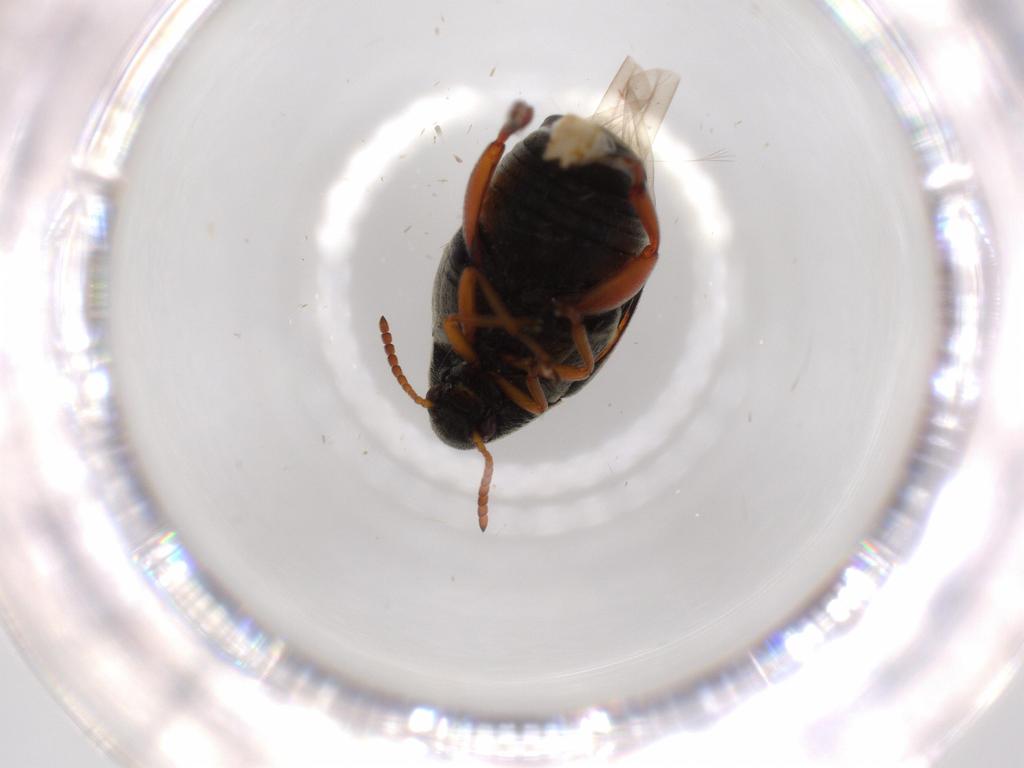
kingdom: Animalia
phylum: Arthropoda
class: Insecta
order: Coleoptera
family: Chrysomelidae
